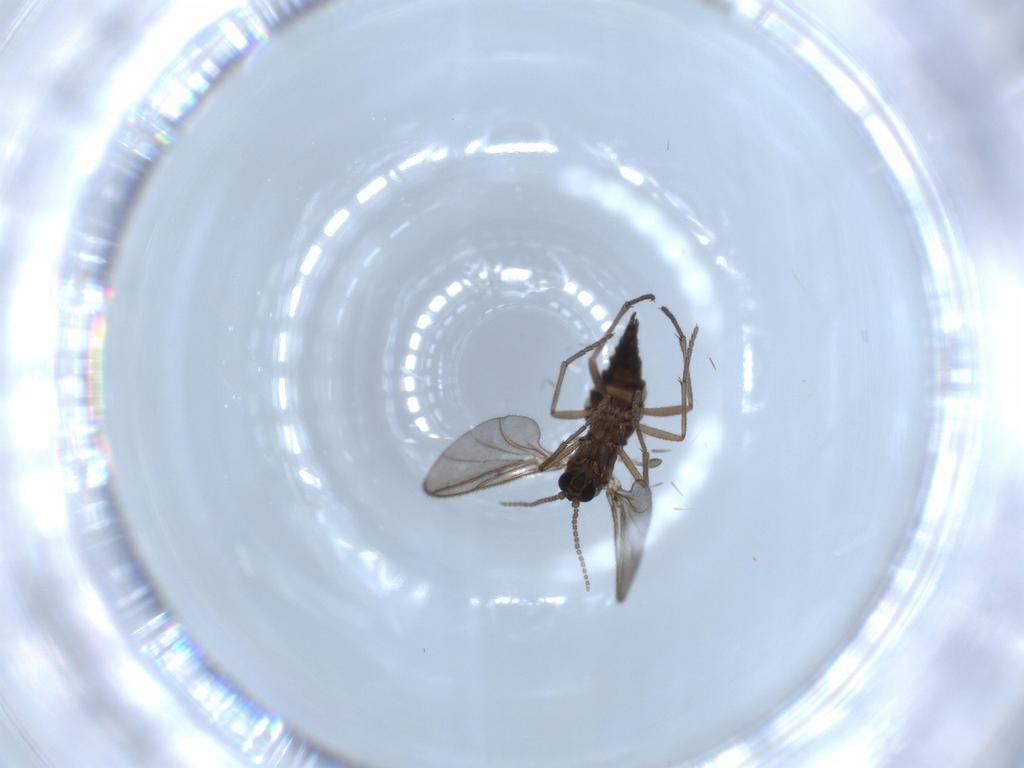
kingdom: Animalia
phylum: Arthropoda
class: Insecta
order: Diptera
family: Sciaridae
